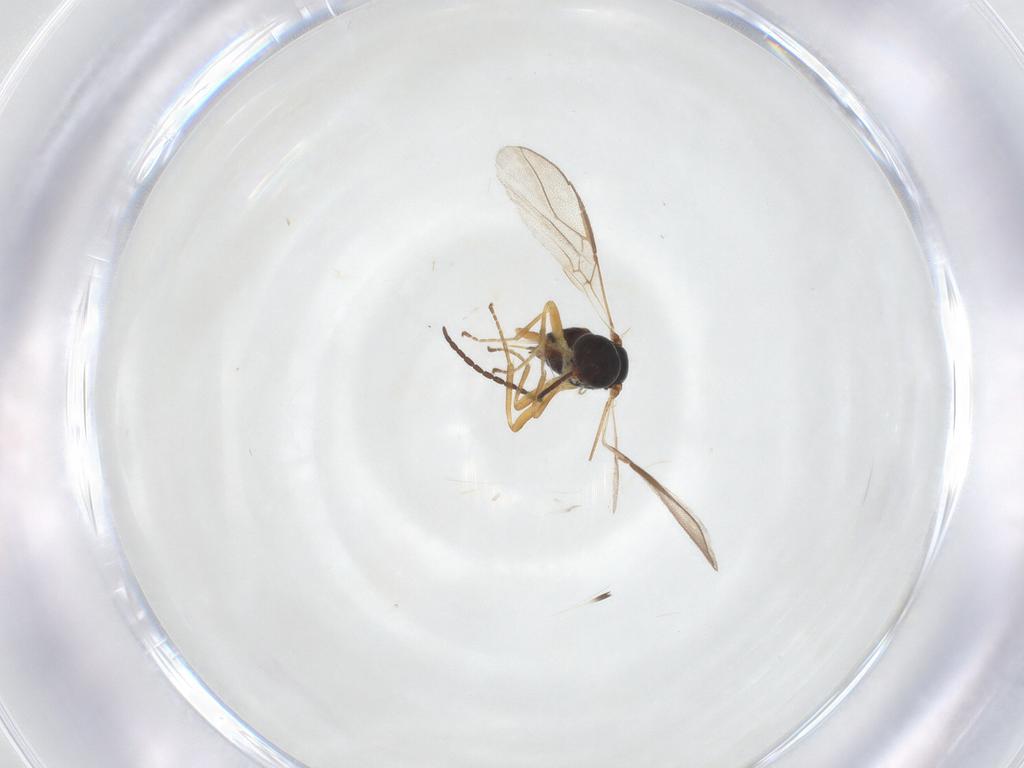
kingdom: Animalia
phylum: Arthropoda
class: Insecta
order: Hymenoptera
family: Braconidae
